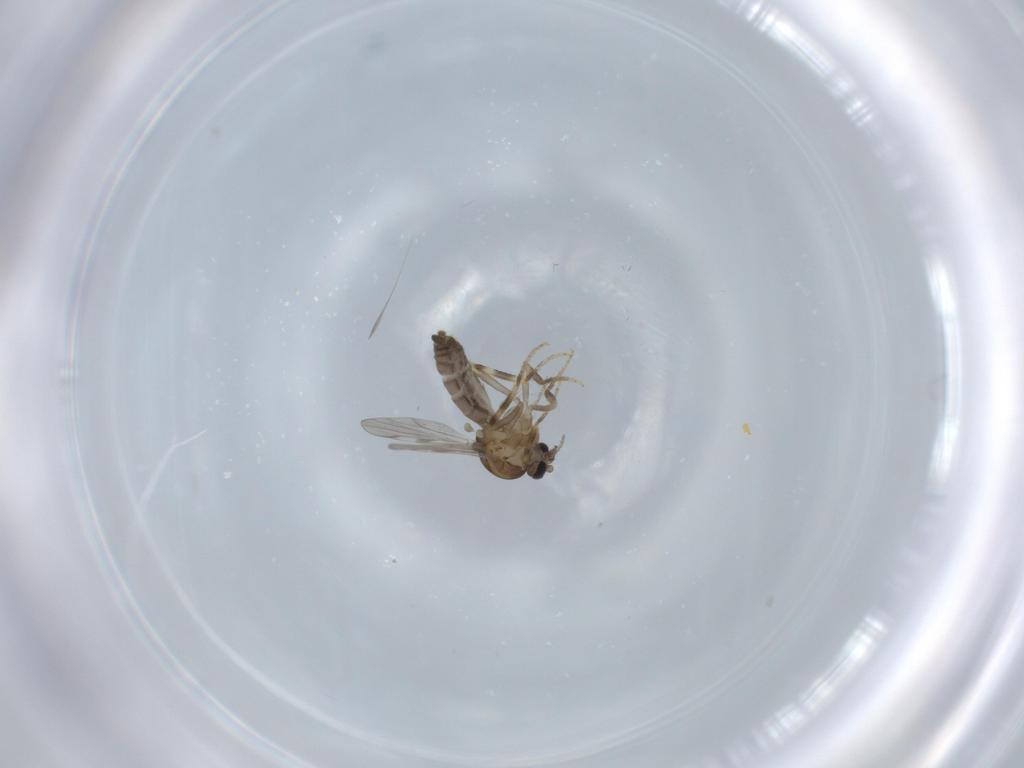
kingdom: Animalia
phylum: Arthropoda
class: Insecta
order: Diptera
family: Ceratopogonidae
